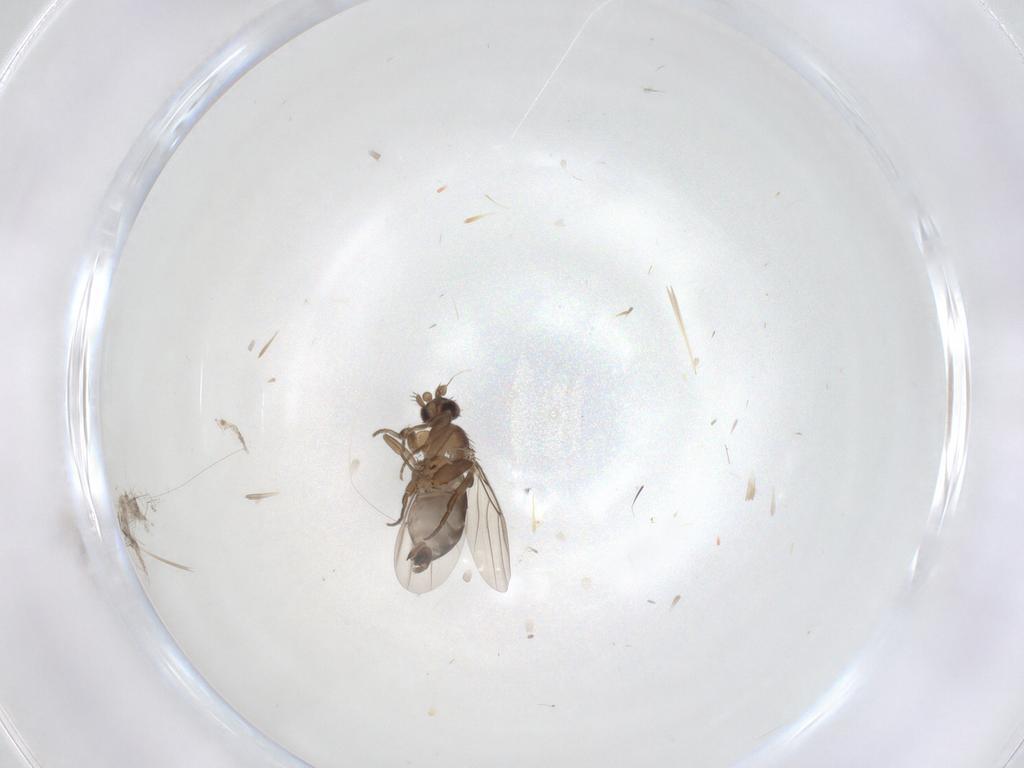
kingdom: Animalia
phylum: Arthropoda
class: Insecta
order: Diptera
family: Sciaridae
